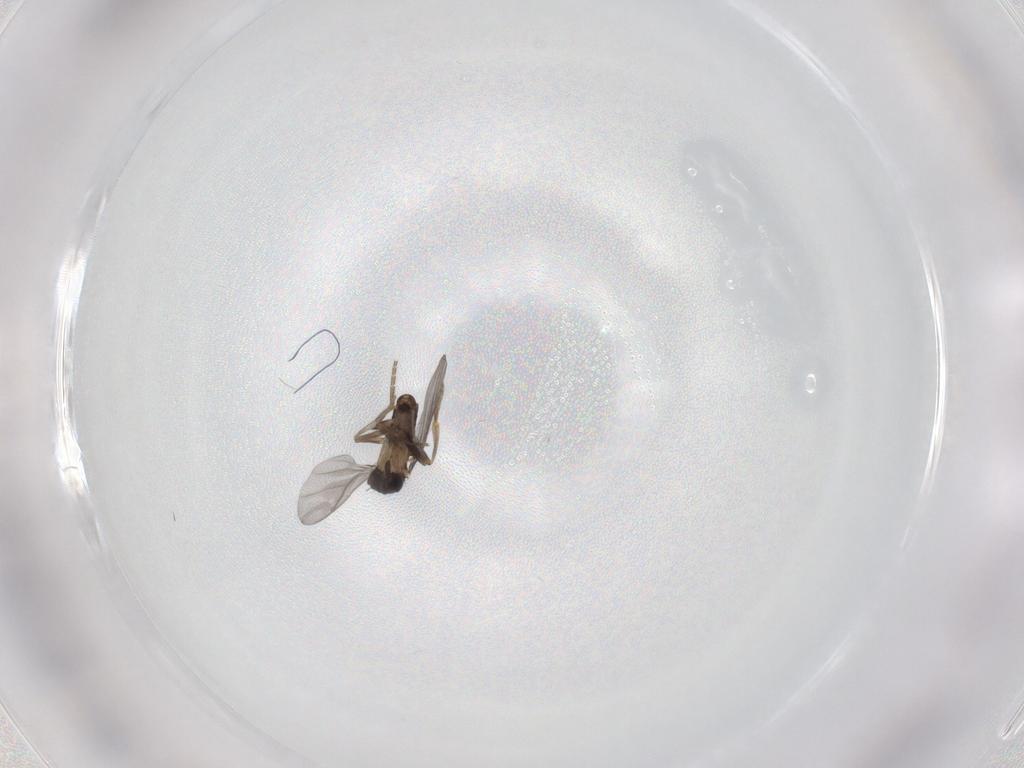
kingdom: Animalia
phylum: Arthropoda
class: Insecta
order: Diptera
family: Phoridae
